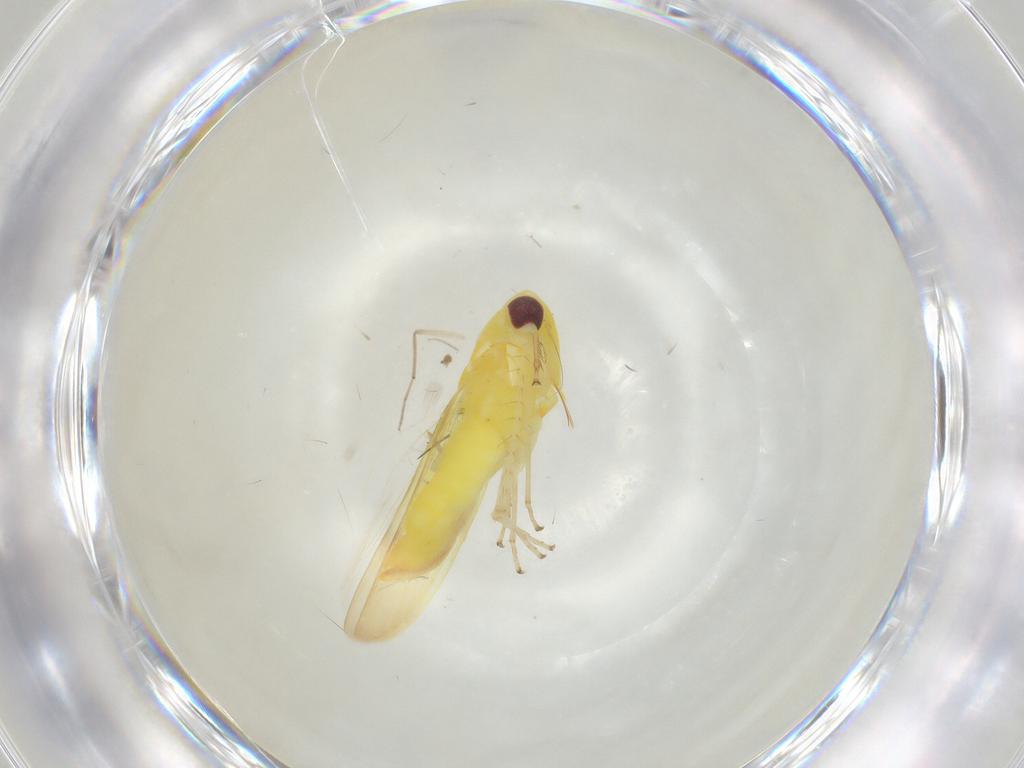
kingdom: Animalia
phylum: Arthropoda
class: Insecta
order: Hemiptera
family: Cicadellidae
